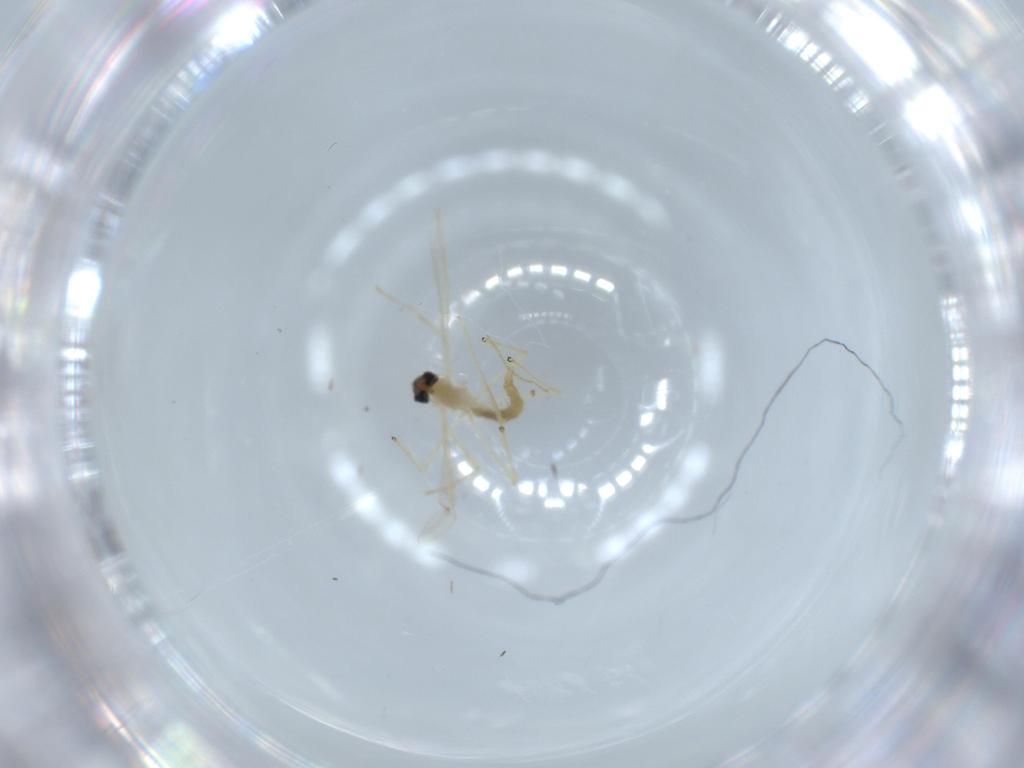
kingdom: Animalia
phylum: Arthropoda
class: Insecta
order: Diptera
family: Chironomidae
